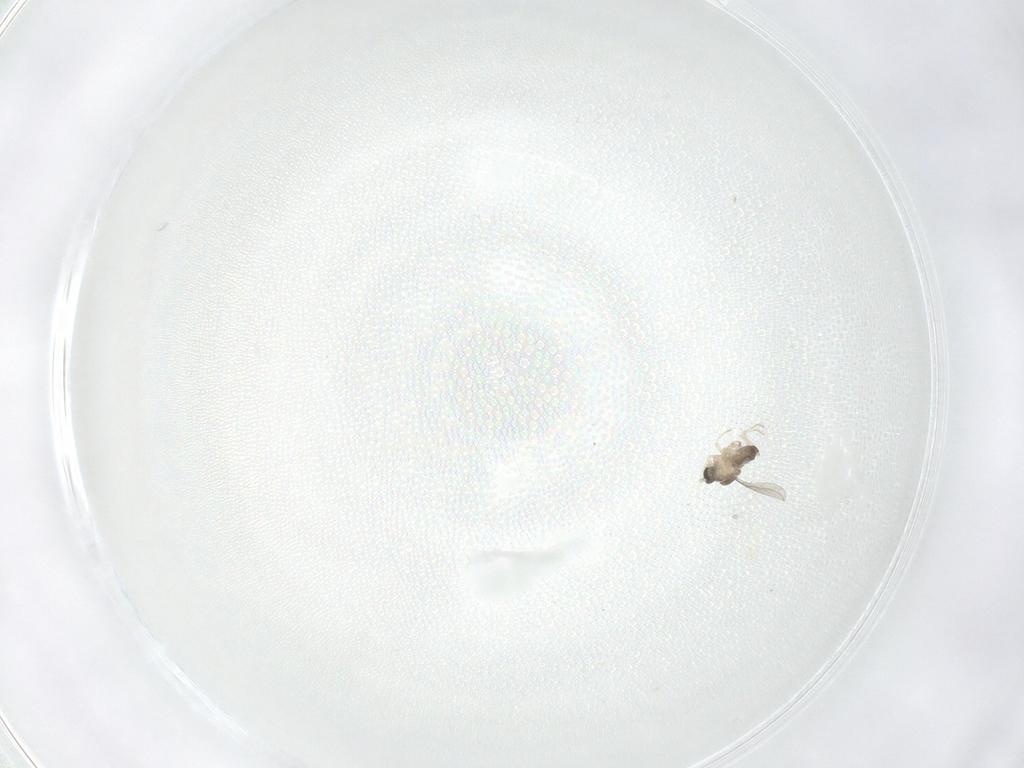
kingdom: Animalia
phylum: Arthropoda
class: Insecta
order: Diptera
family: Cecidomyiidae
